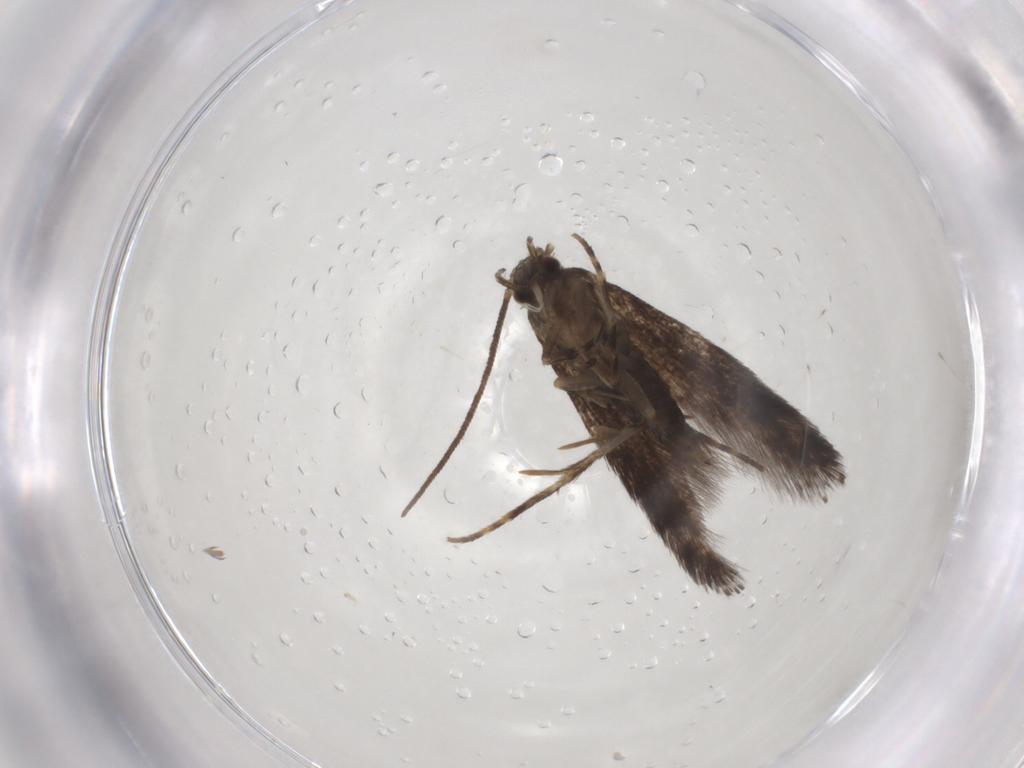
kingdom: Animalia
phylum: Arthropoda
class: Insecta
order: Lepidoptera
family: Elachistidae
